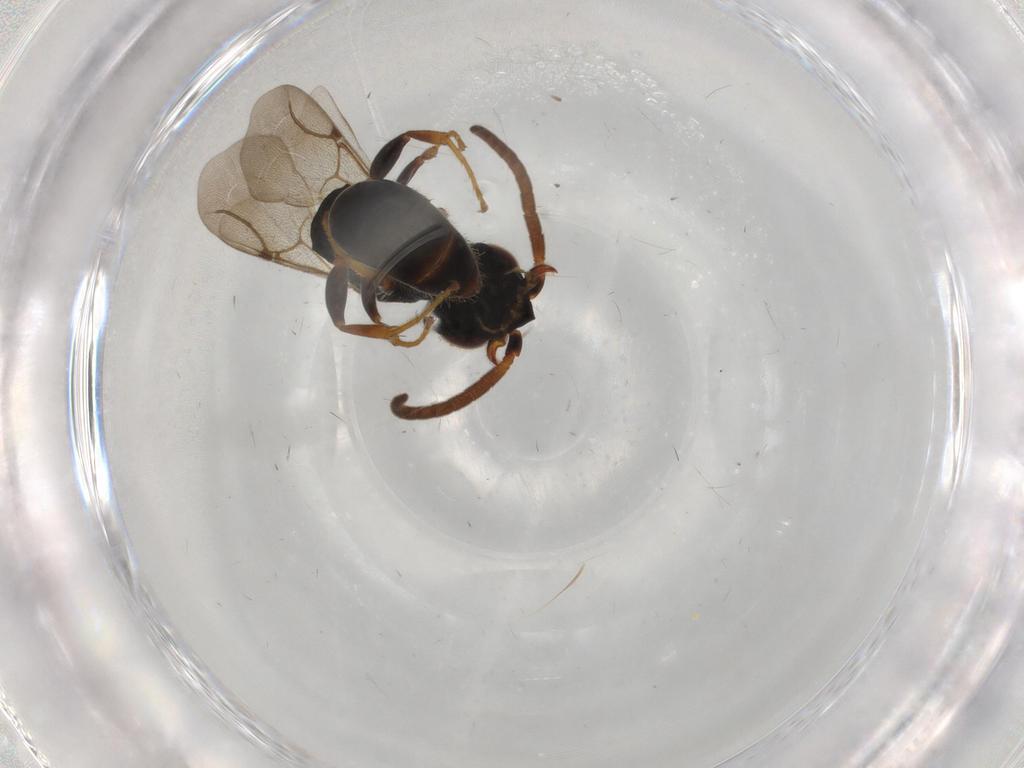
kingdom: Animalia
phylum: Arthropoda
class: Insecta
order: Hymenoptera
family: Bethylidae
